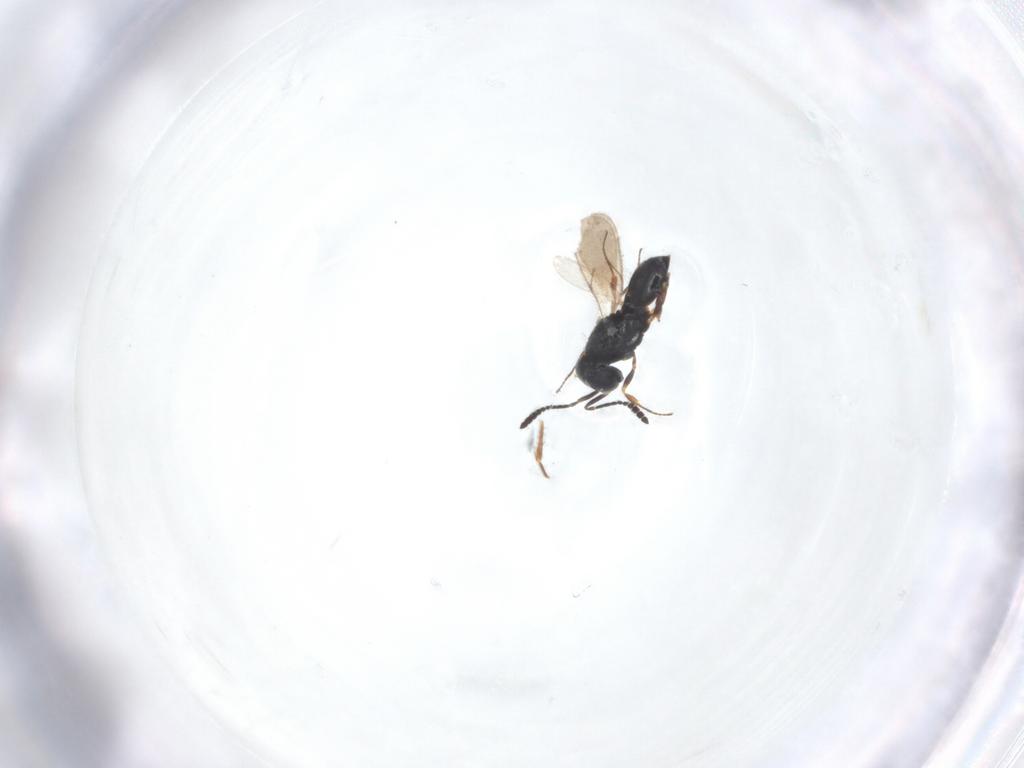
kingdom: Animalia
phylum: Arthropoda
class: Insecta
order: Hymenoptera
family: Scelionidae
